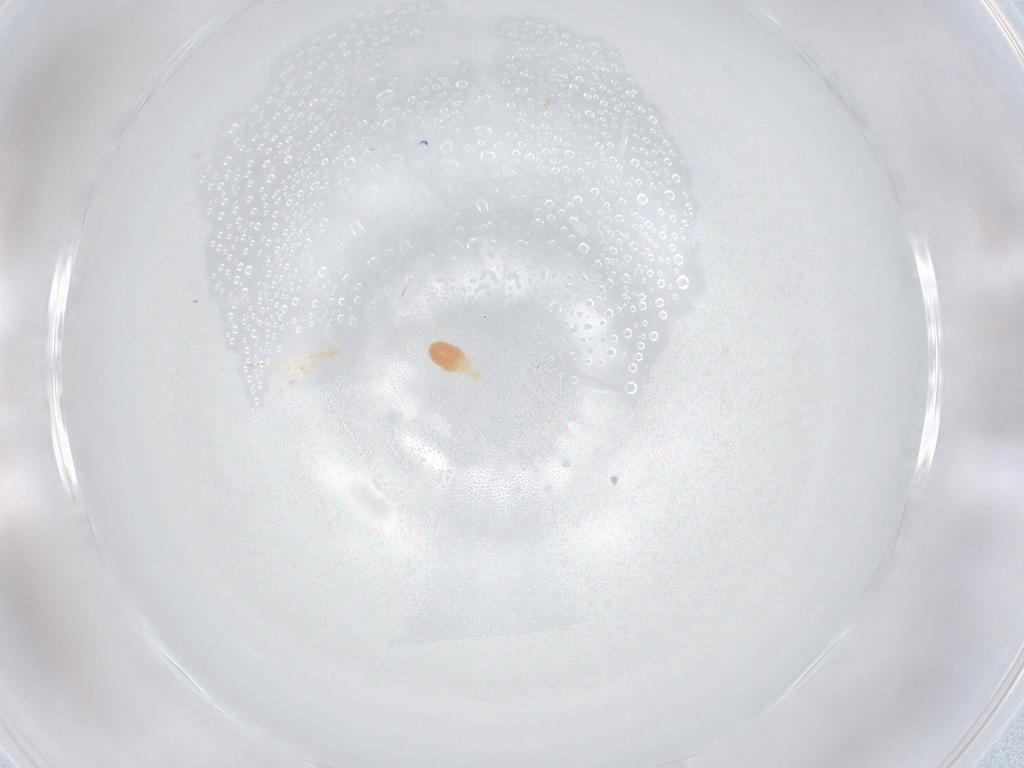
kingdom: Animalia
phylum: Arthropoda
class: Arachnida
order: Trombidiformes
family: Erythraeidae
